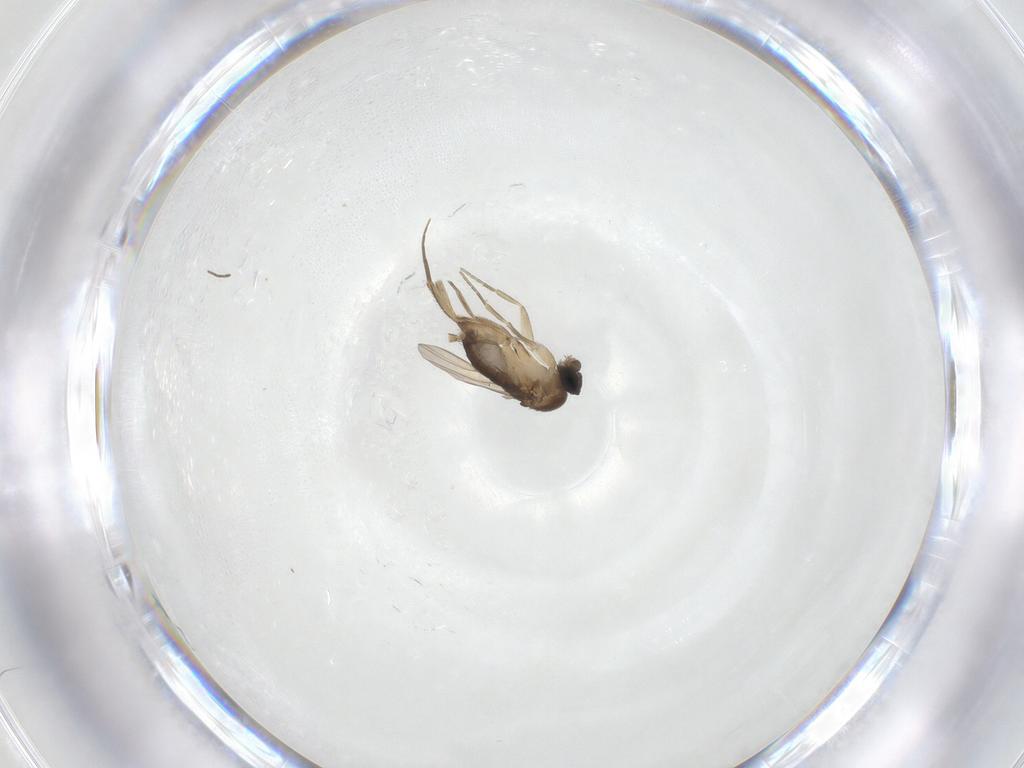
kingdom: Animalia
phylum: Arthropoda
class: Insecta
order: Diptera
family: Phoridae
